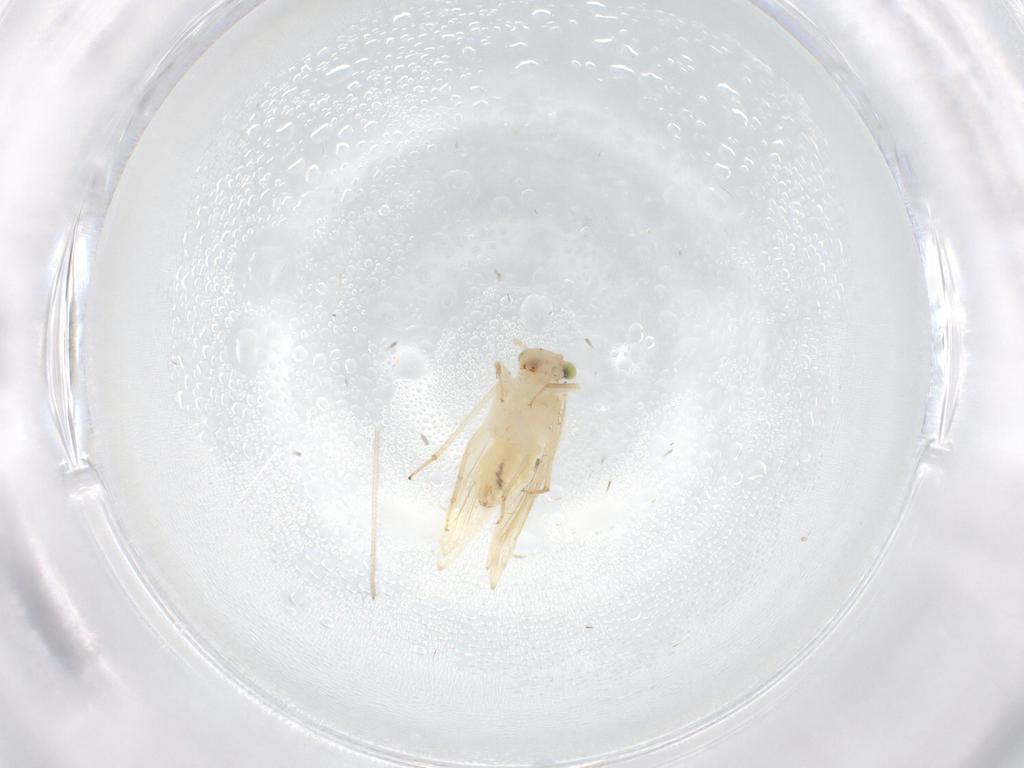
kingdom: Animalia
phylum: Arthropoda
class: Insecta
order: Psocodea
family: Lepidopsocidae
